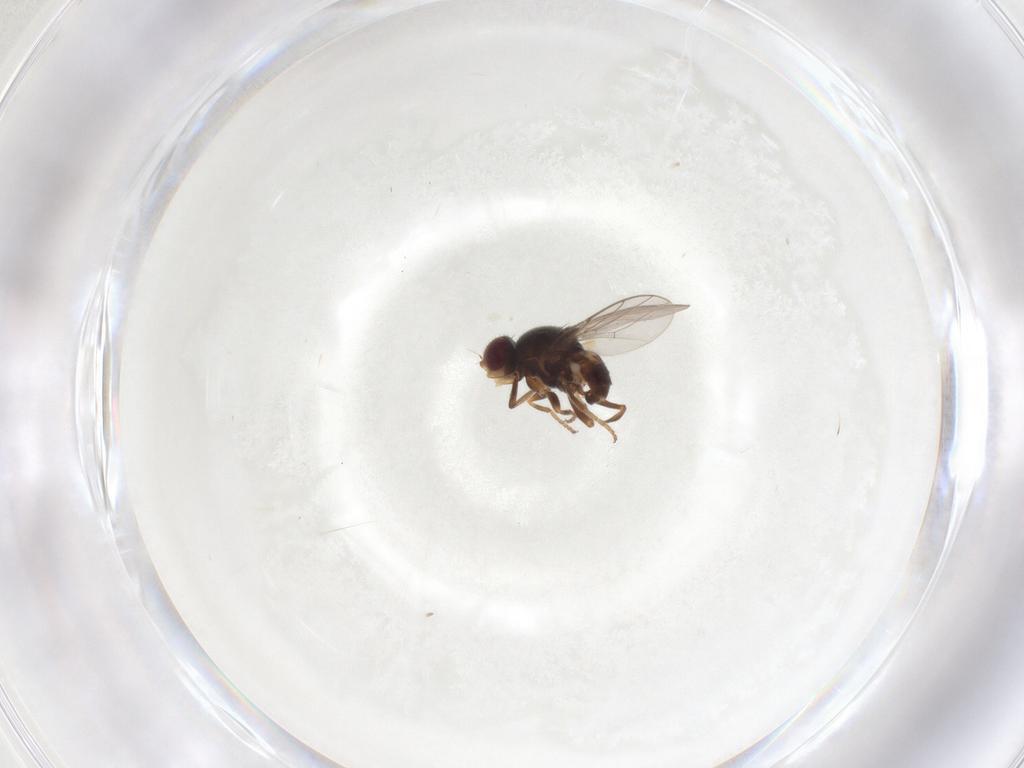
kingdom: Animalia
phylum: Arthropoda
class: Insecta
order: Diptera
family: Chloropidae
